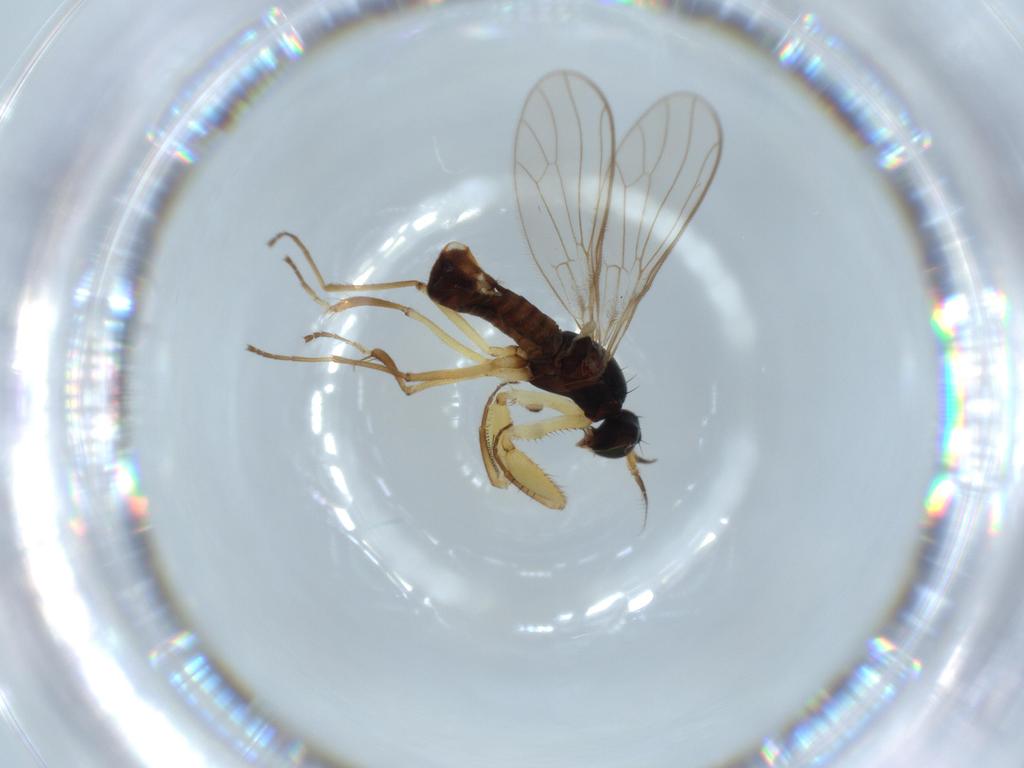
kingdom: Animalia
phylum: Arthropoda
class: Insecta
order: Diptera
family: Empididae
